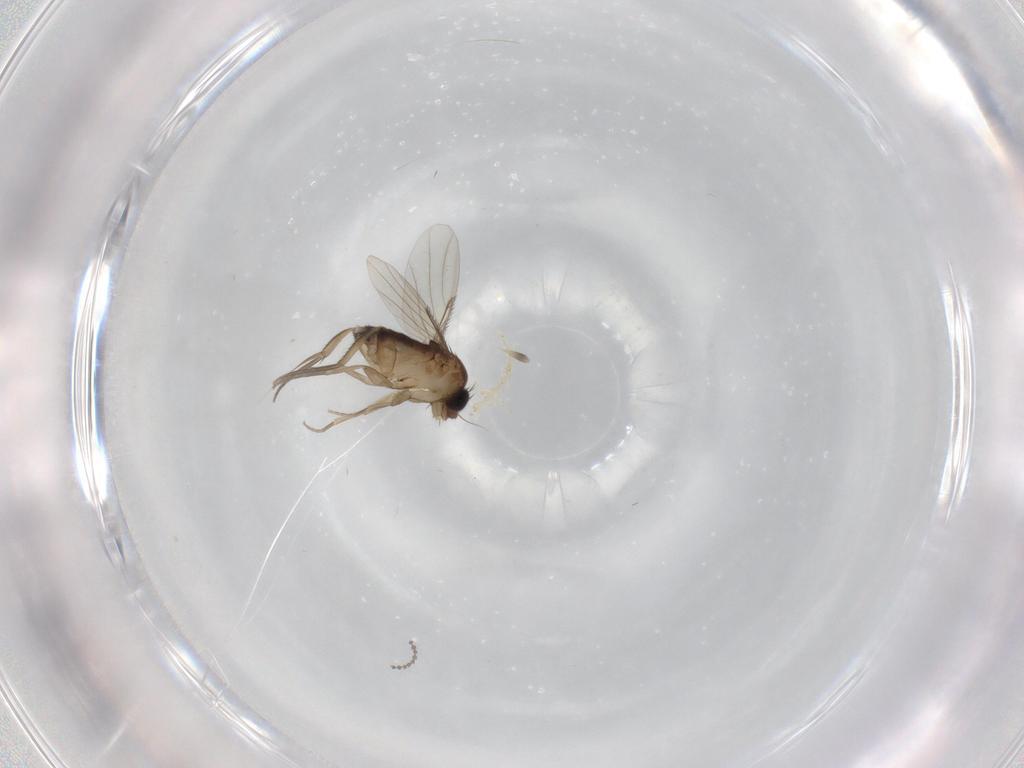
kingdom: Animalia
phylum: Arthropoda
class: Insecta
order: Diptera
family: Phoridae
